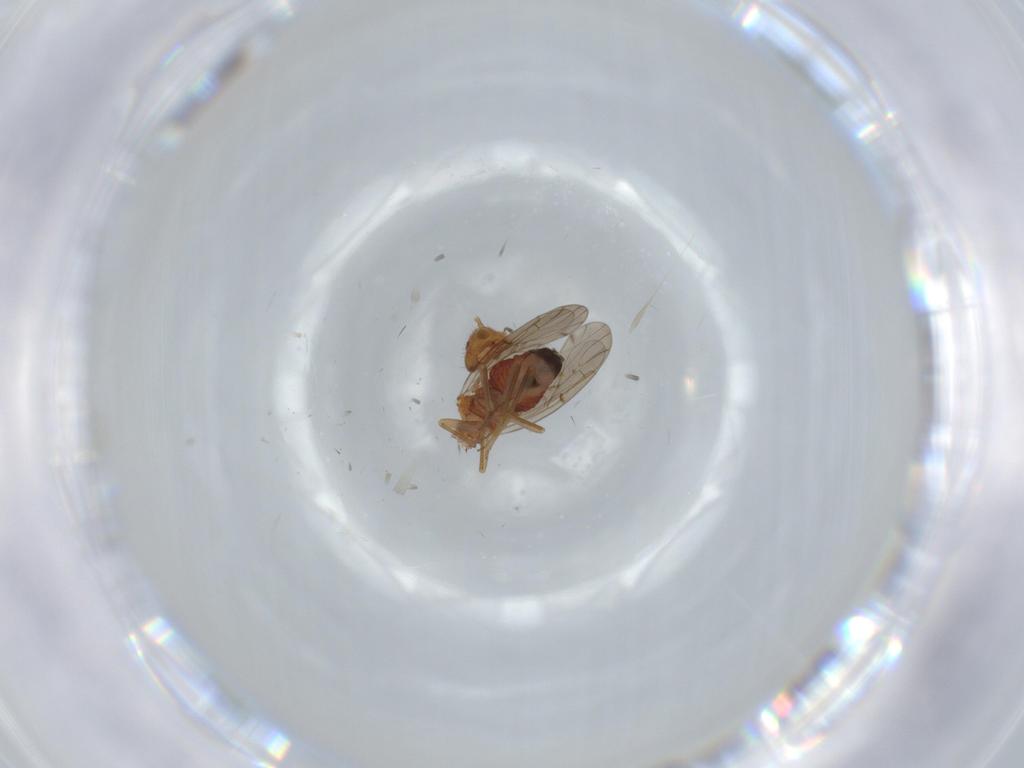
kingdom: Animalia
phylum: Arthropoda
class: Insecta
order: Psocodea
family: Ectopsocidae
